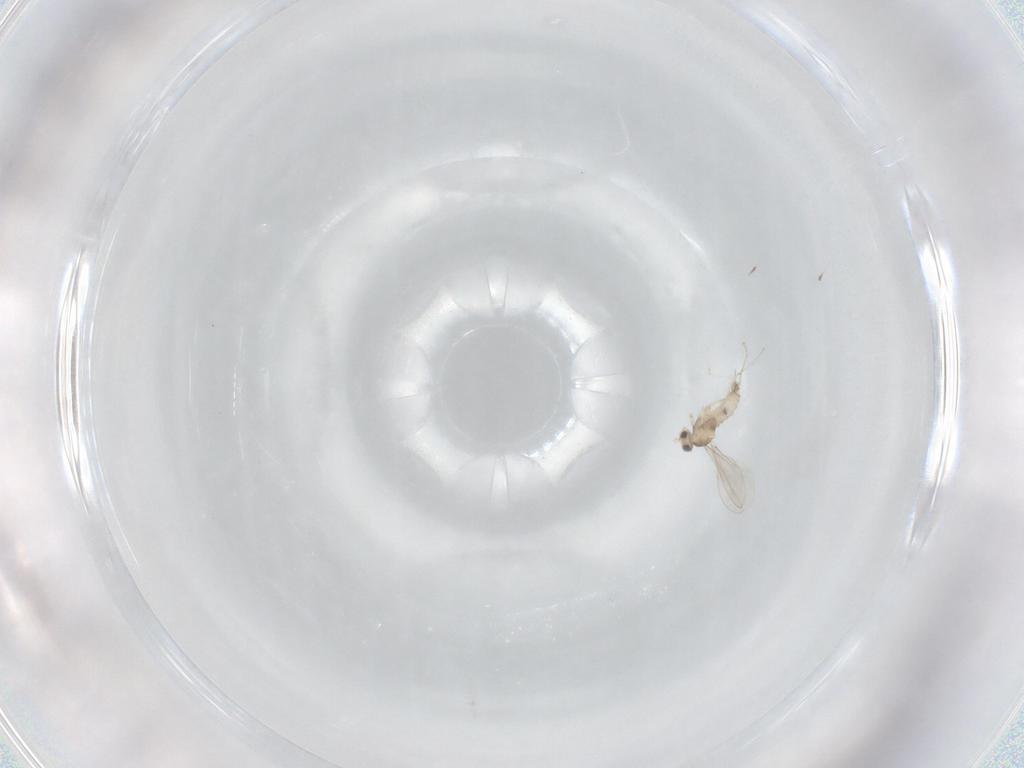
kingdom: Animalia
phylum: Arthropoda
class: Insecta
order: Diptera
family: Cecidomyiidae
